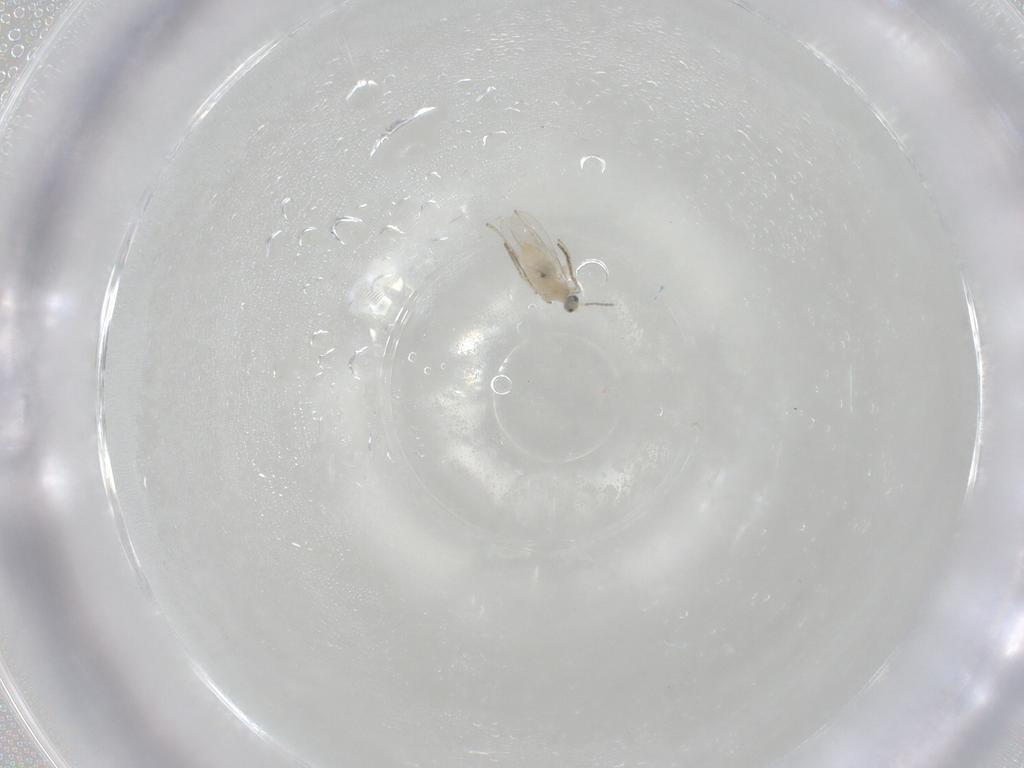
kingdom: Animalia
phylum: Arthropoda
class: Insecta
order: Diptera
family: Cecidomyiidae
